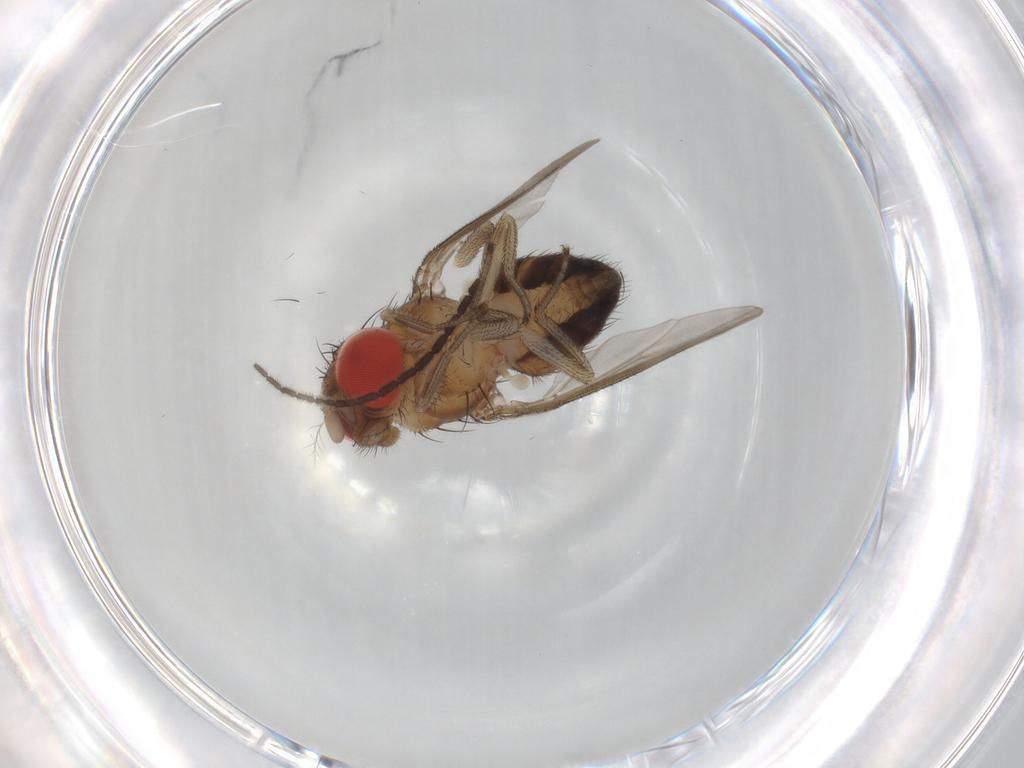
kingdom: Animalia
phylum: Arthropoda
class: Insecta
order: Diptera
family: Drosophilidae
